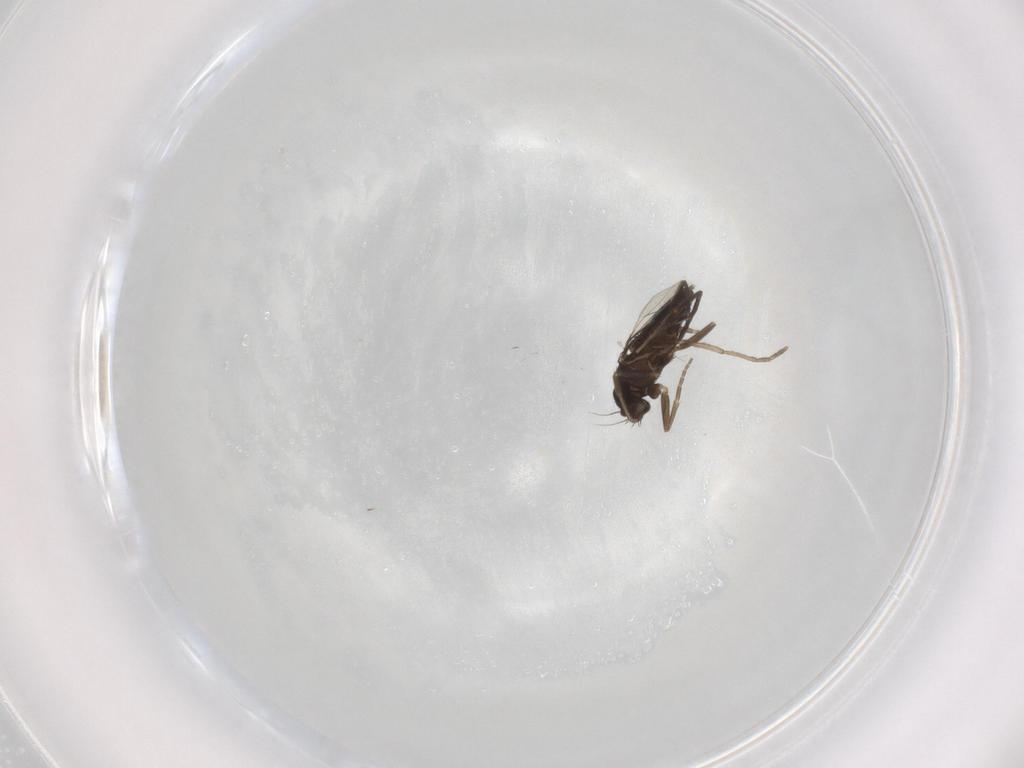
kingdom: Animalia
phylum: Arthropoda
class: Insecta
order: Diptera
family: Phoridae
